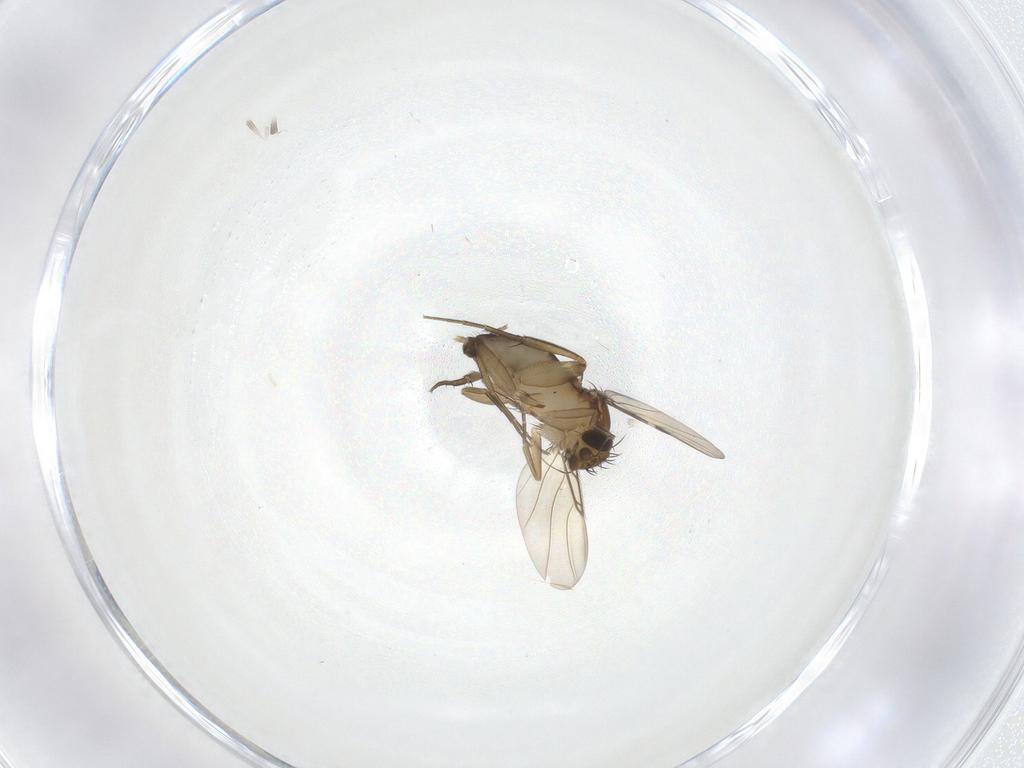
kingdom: Animalia
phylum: Arthropoda
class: Insecta
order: Diptera
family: Phoridae
